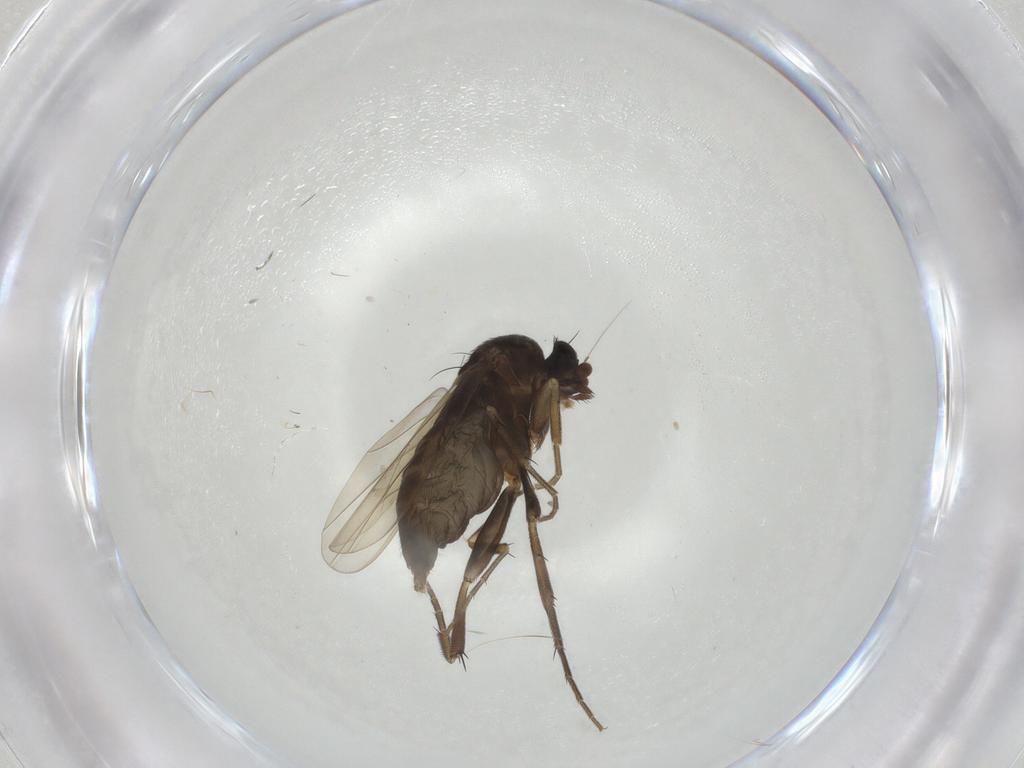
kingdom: Animalia
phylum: Arthropoda
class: Insecta
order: Diptera
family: Phoridae
